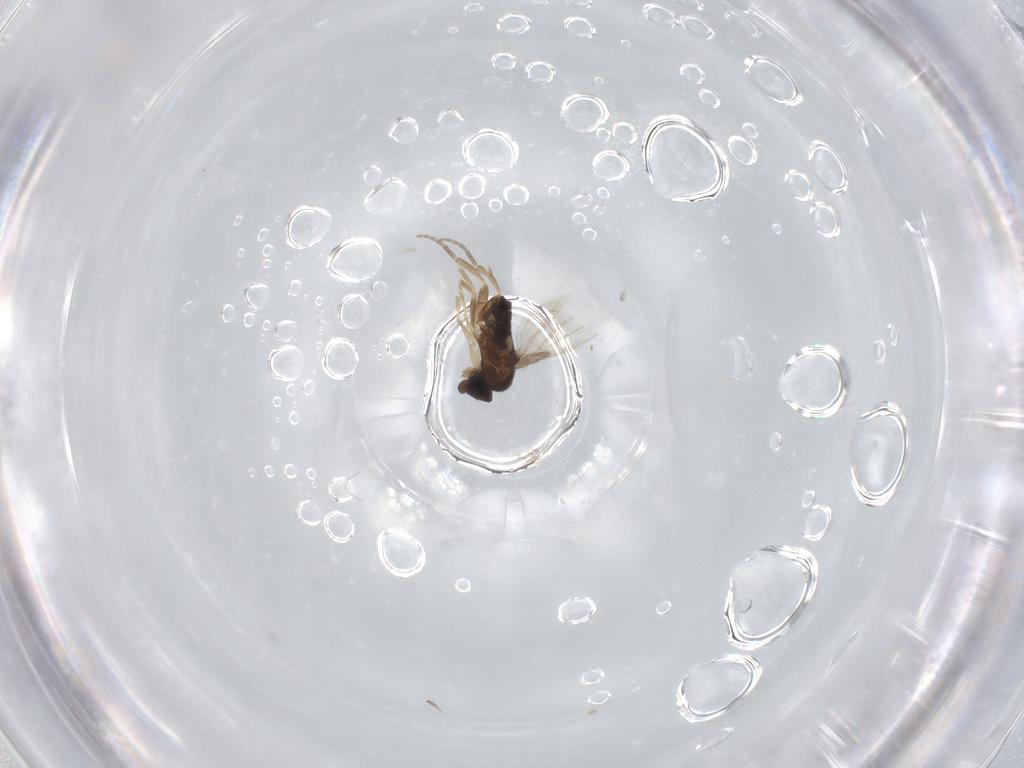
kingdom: Animalia
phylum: Arthropoda
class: Insecta
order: Diptera
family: Phoridae
